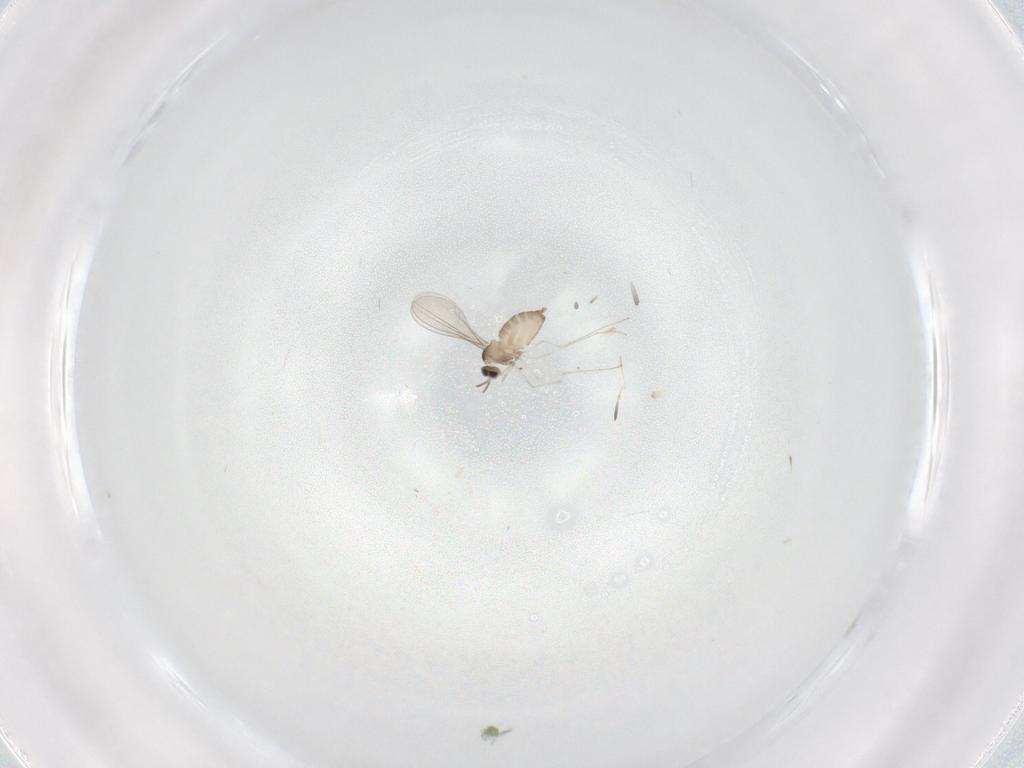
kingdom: Animalia
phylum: Arthropoda
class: Insecta
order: Diptera
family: Cecidomyiidae
